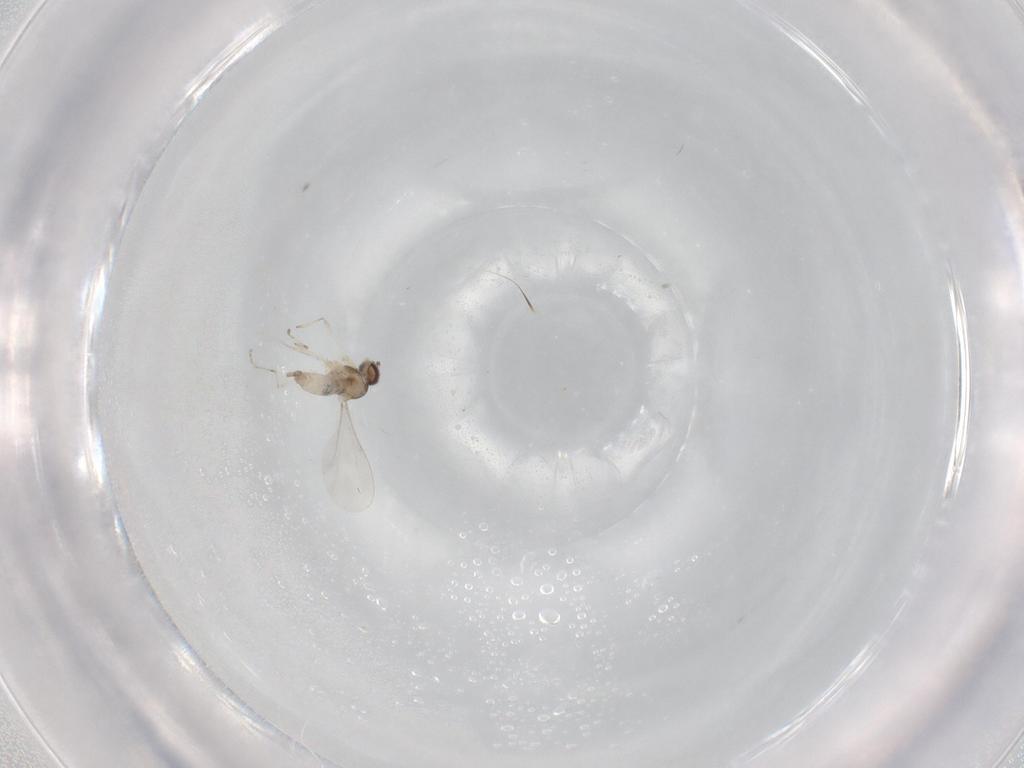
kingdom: Animalia
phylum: Arthropoda
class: Insecta
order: Diptera
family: Cecidomyiidae
